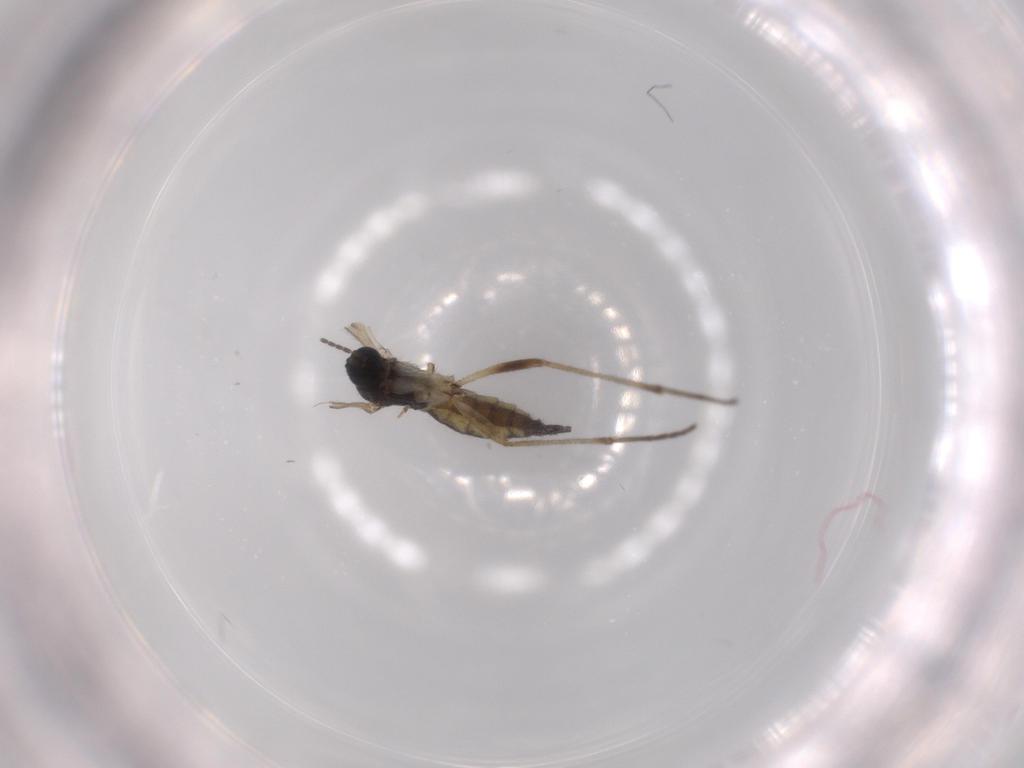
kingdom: Animalia
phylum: Arthropoda
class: Insecta
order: Diptera
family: Sciaridae
